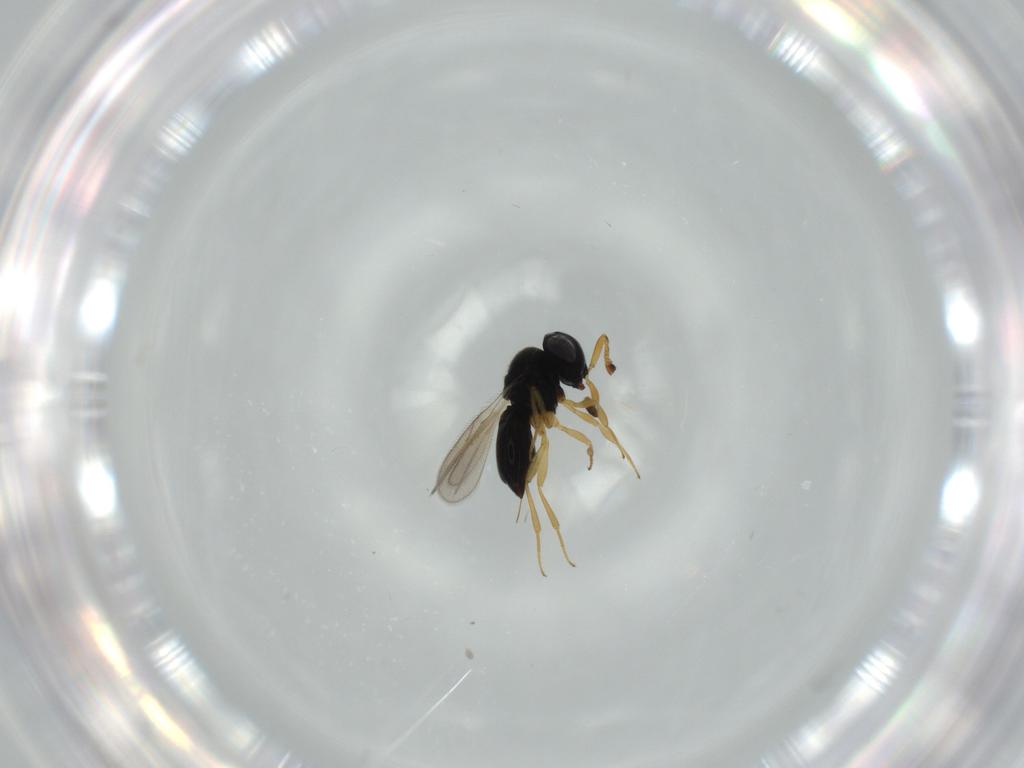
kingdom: Animalia
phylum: Arthropoda
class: Insecta
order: Hymenoptera
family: Scelionidae
